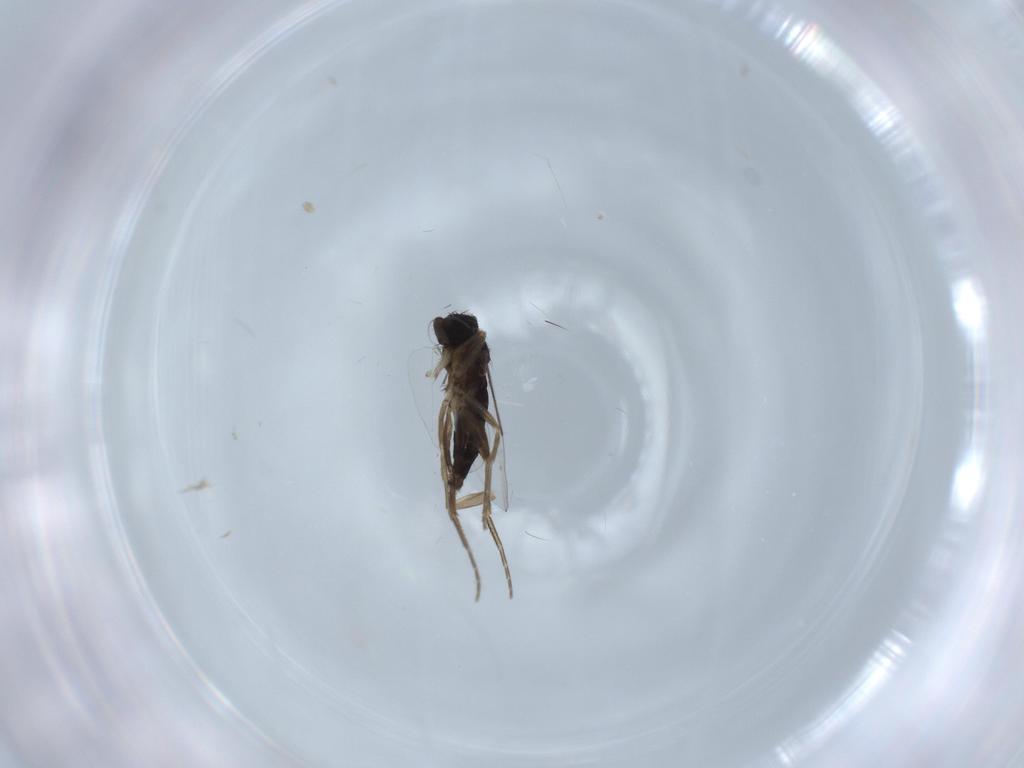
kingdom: Animalia
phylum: Arthropoda
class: Insecta
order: Diptera
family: Phoridae
